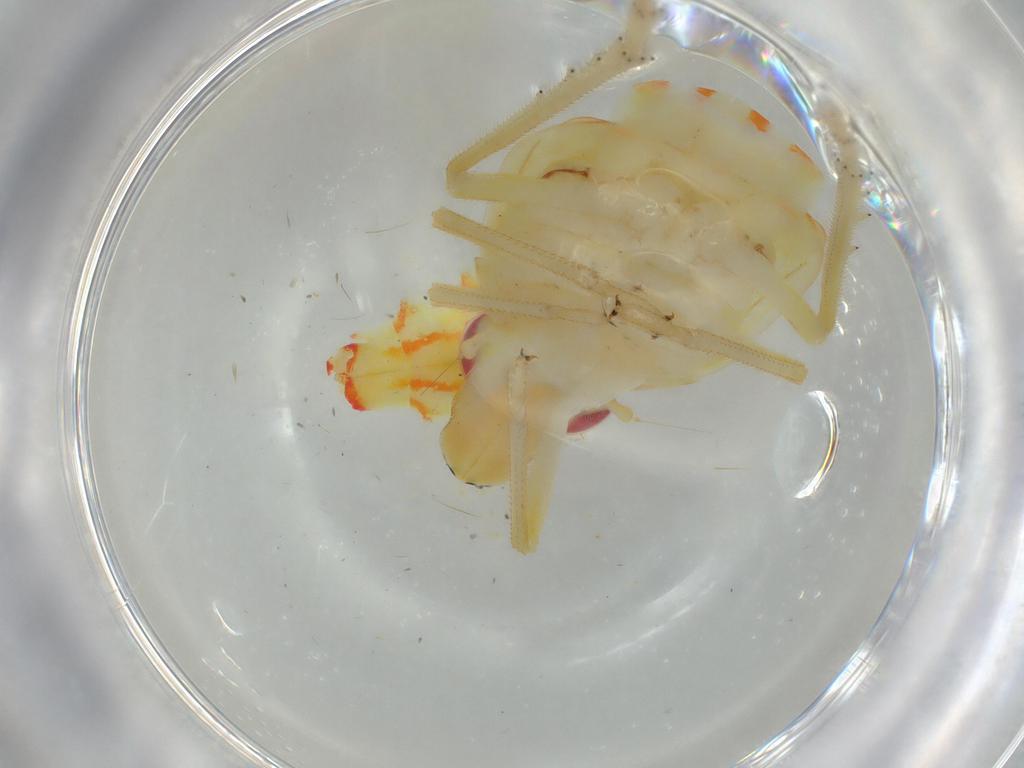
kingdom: Animalia
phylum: Arthropoda
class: Insecta
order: Hemiptera
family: Tropiduchidae
